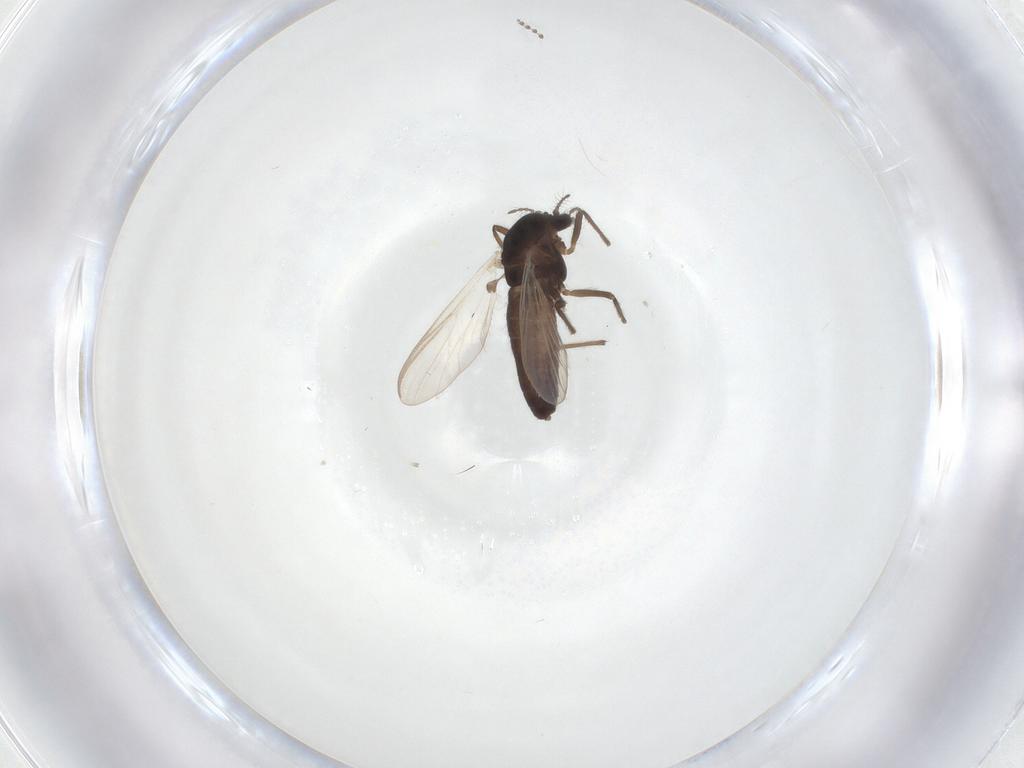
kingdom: Animalia
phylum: Arthropoda
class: Insecta
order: Diptera
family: Chironomidae
